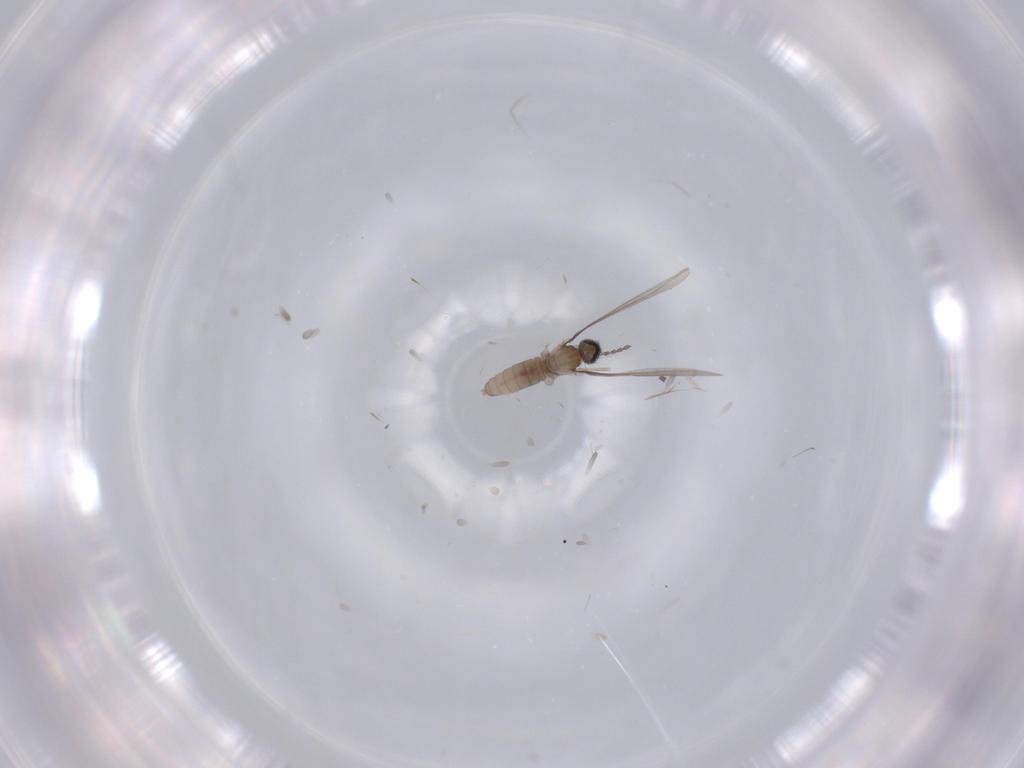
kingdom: Animalia
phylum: Arthropoda
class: Insecta
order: Diptera
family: Cecidomyiidae
